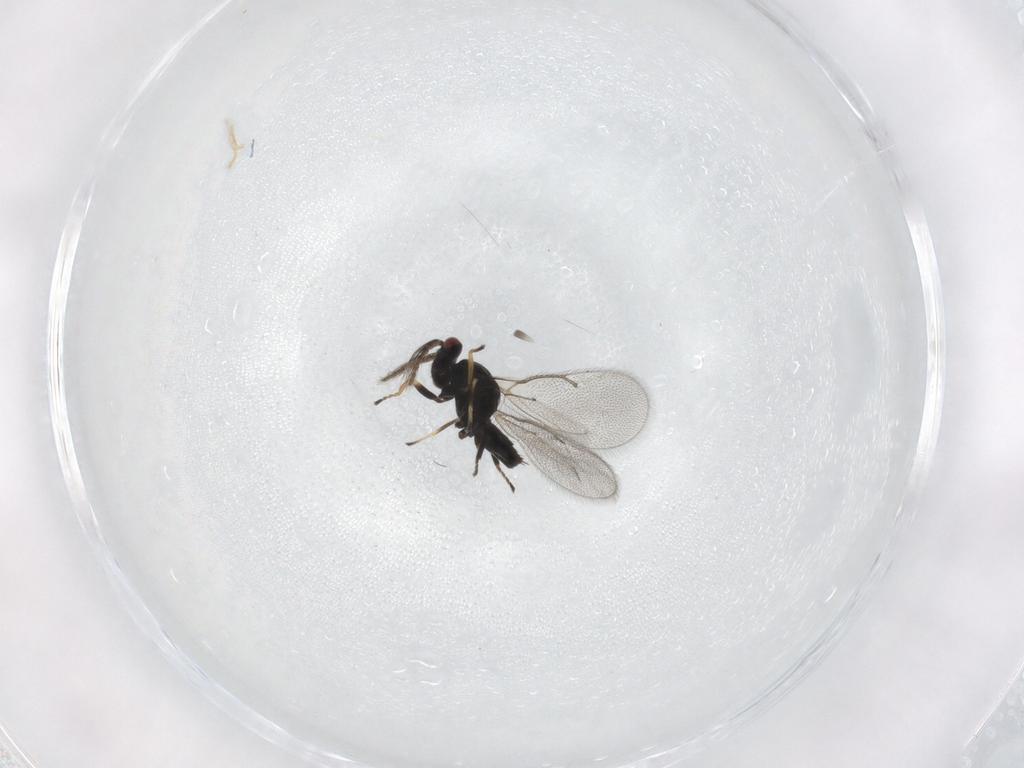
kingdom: Animalia
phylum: Arthropoda
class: Insecta
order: Hymenoptera
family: Eulophidae
